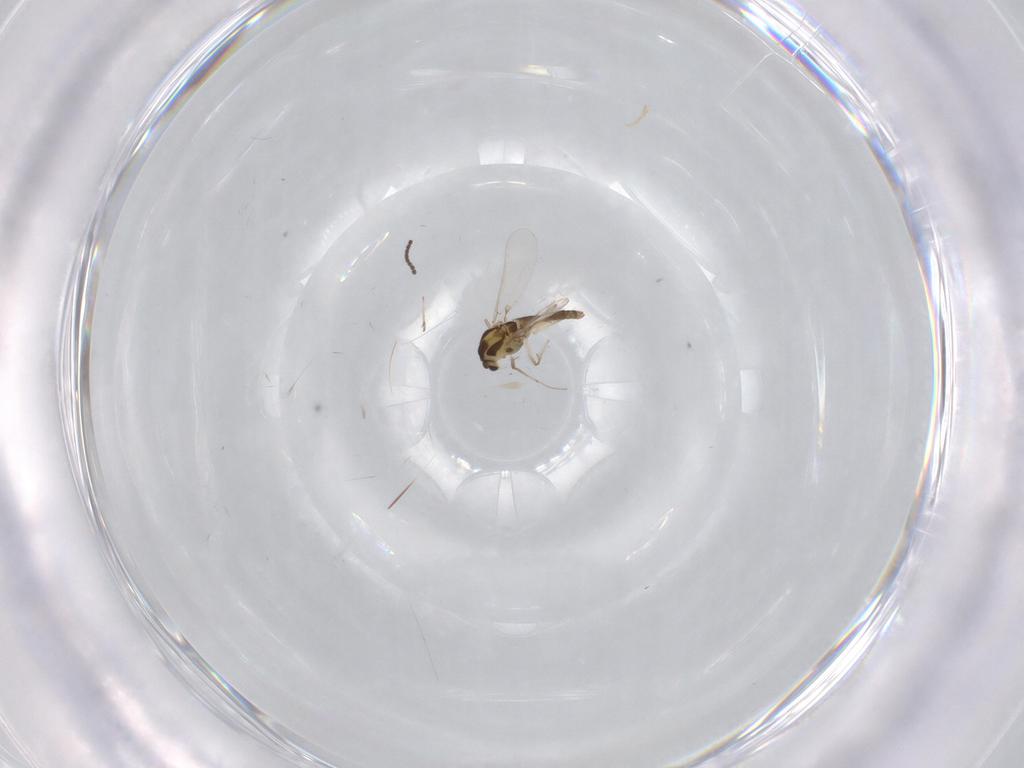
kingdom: Animalia
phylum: Arthropoda
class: Insecta
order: Diptera
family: Sciaridae
